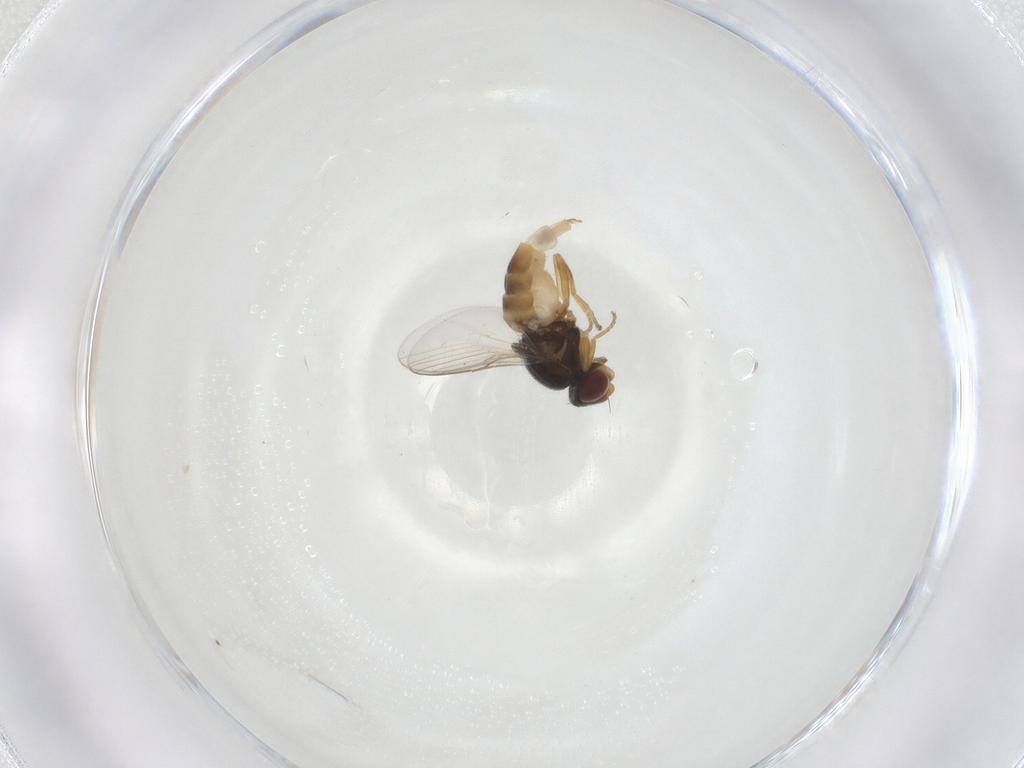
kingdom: Animalia
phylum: Arthropoda
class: Insecta
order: Diptera
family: Chloropidae
